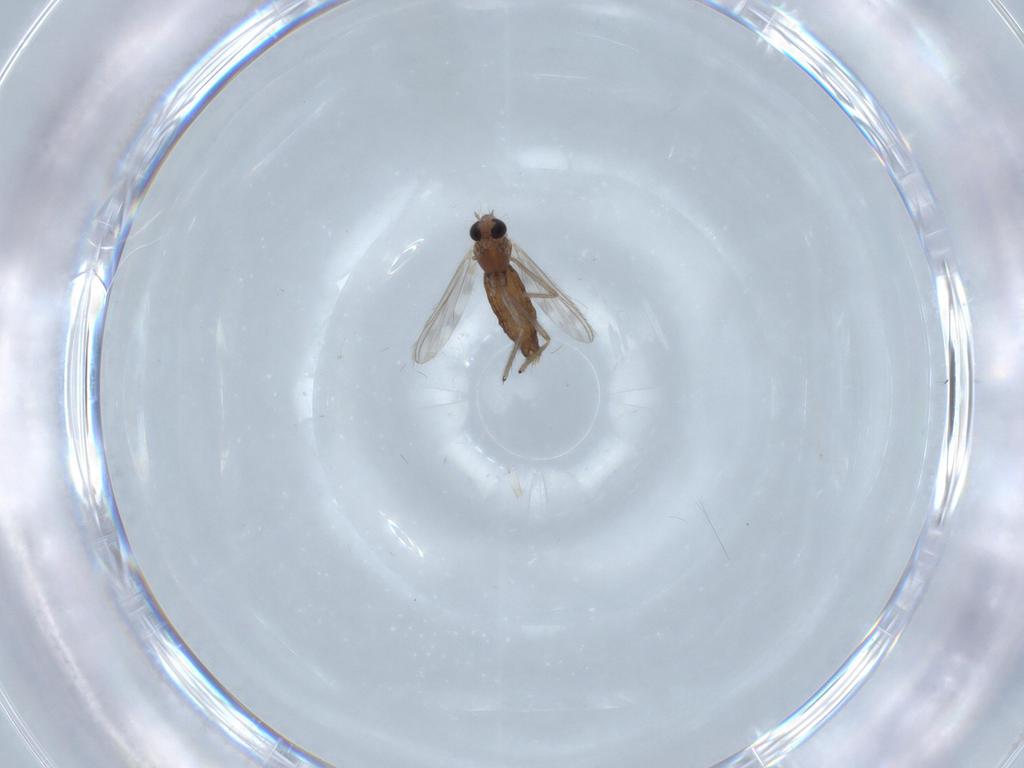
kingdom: Animalia
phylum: Arthropoda
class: Insecta
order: Diptera
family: Chironomidae
